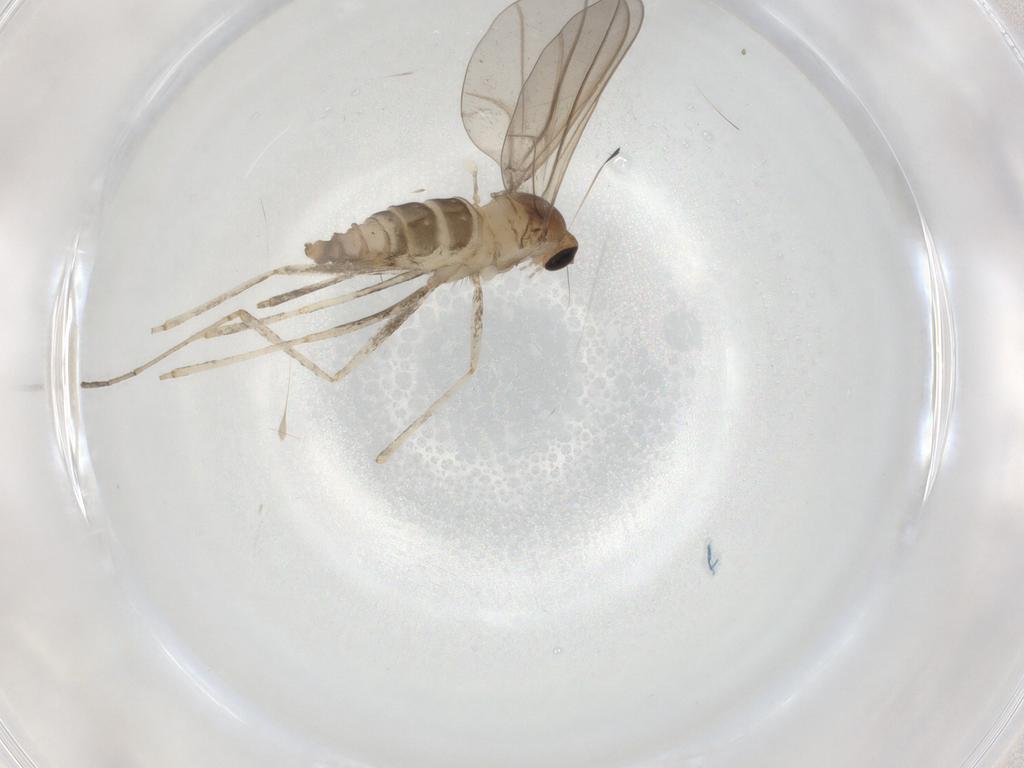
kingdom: Animalia
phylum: Arthropoda
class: Insecta
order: Diptera
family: Cecidomyiidae
